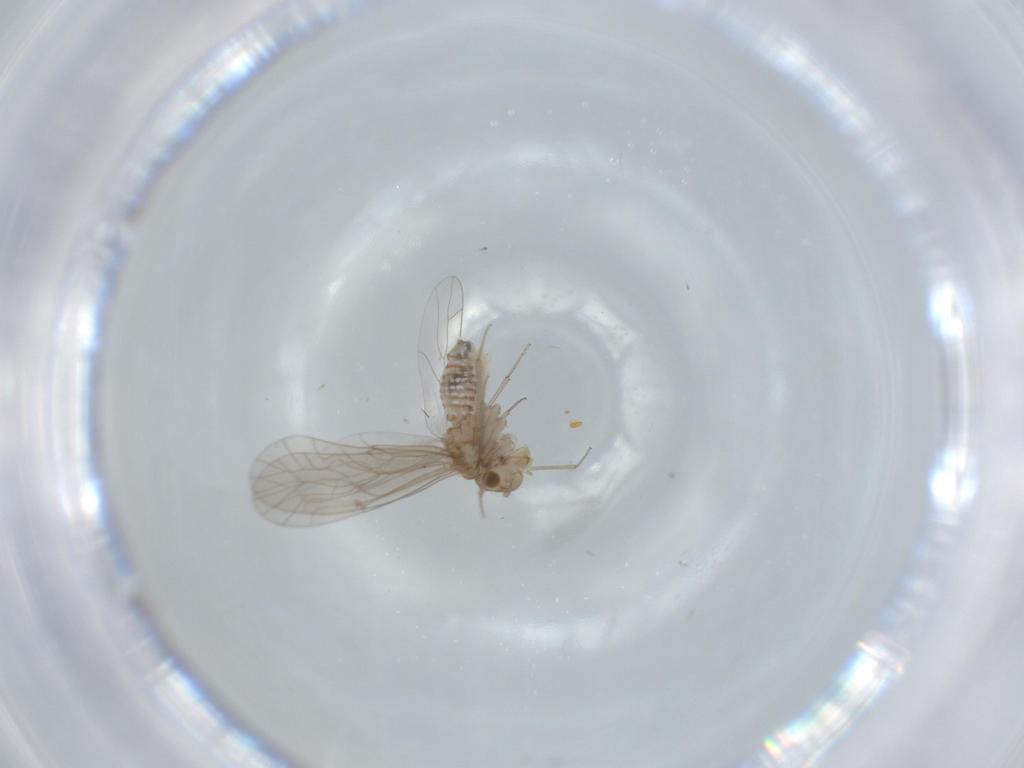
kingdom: Animalia
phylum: Arthropoda
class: Insecta
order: Psocodea
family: Lachesillidae
